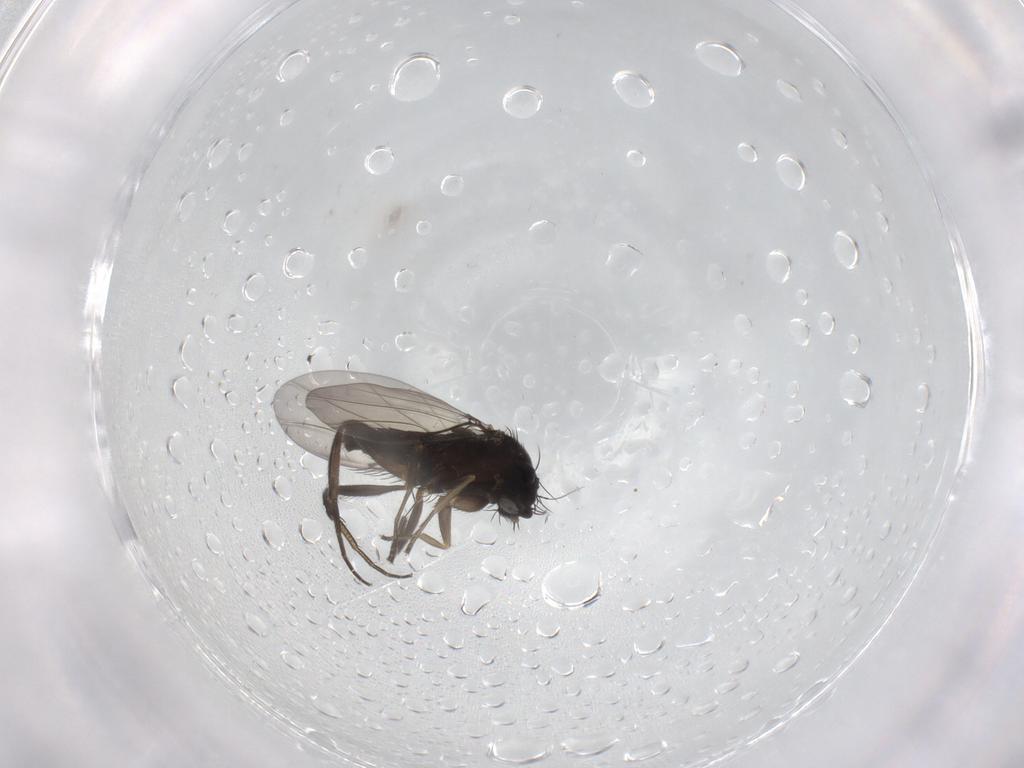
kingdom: Animalia
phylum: Arthropoda
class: Insecta
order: Diptera
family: Phoridae
